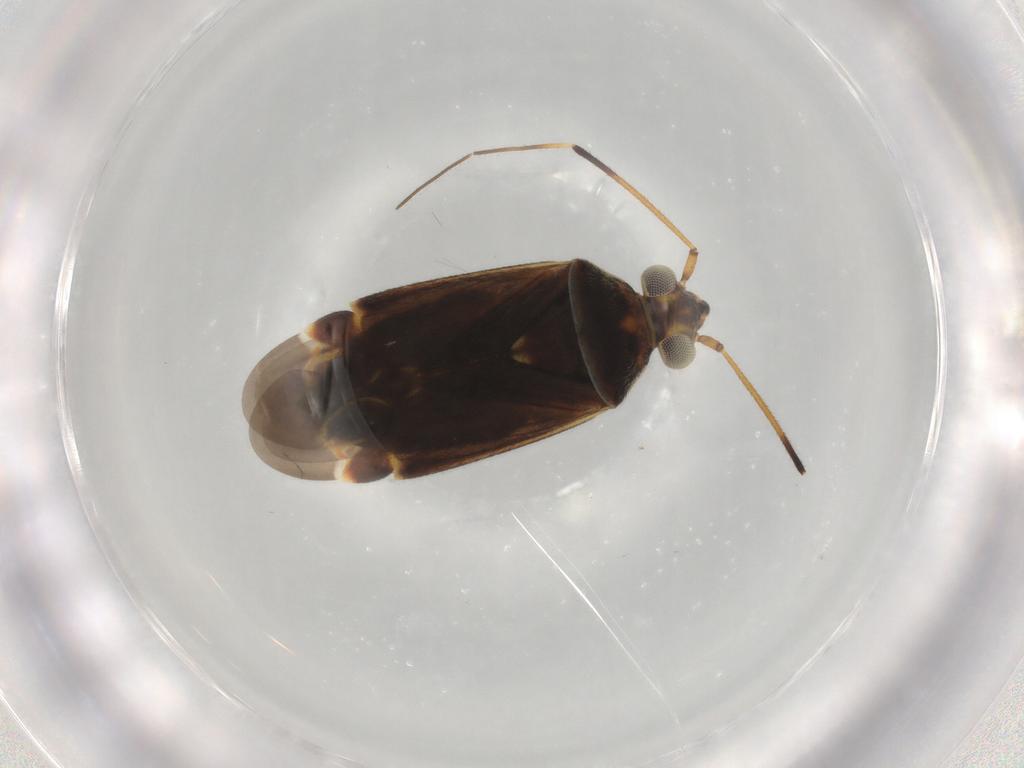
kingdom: Animalia
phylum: Arthropoda
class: Insecta
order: Hemiptera
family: Miridae
